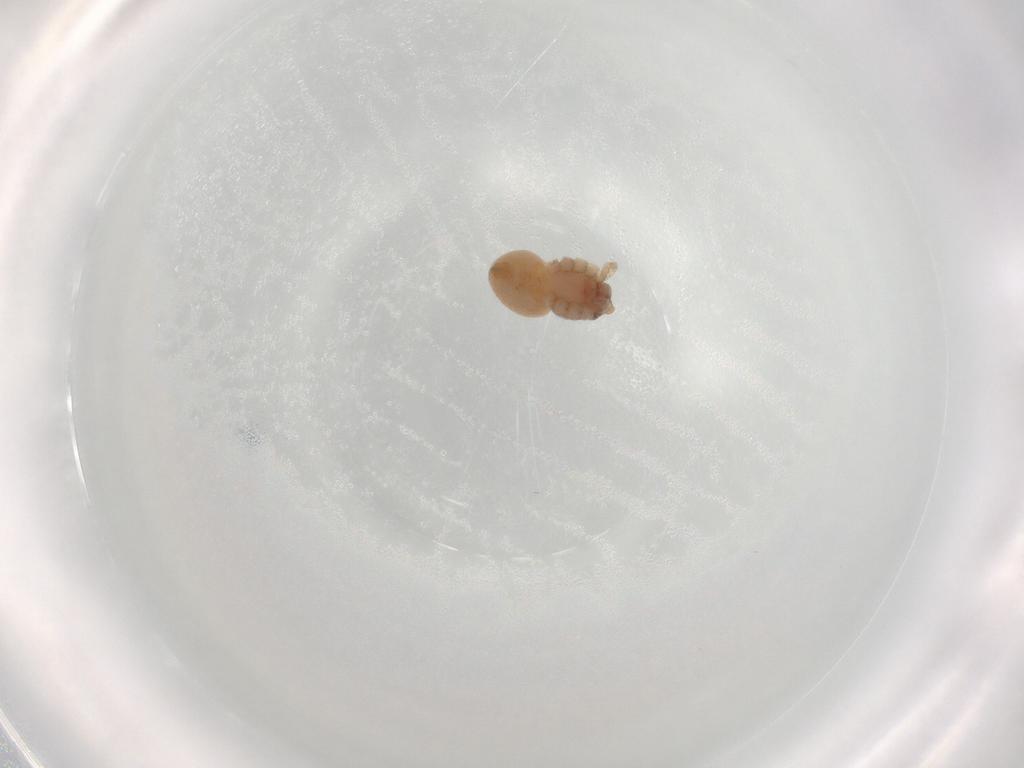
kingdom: Animalia
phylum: Arthropoda
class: Arachnida
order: Araneae
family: Philodromidae
